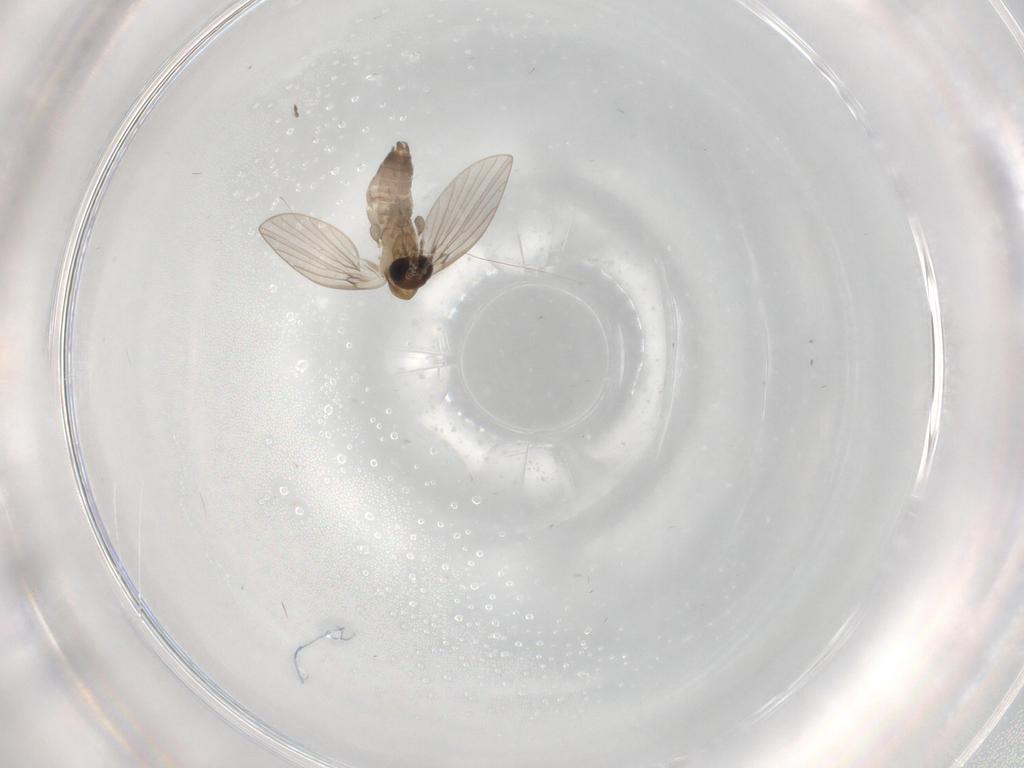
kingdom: Animalia
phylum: Arthropoda
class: Insecta
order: Diptera
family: Psychodidae
